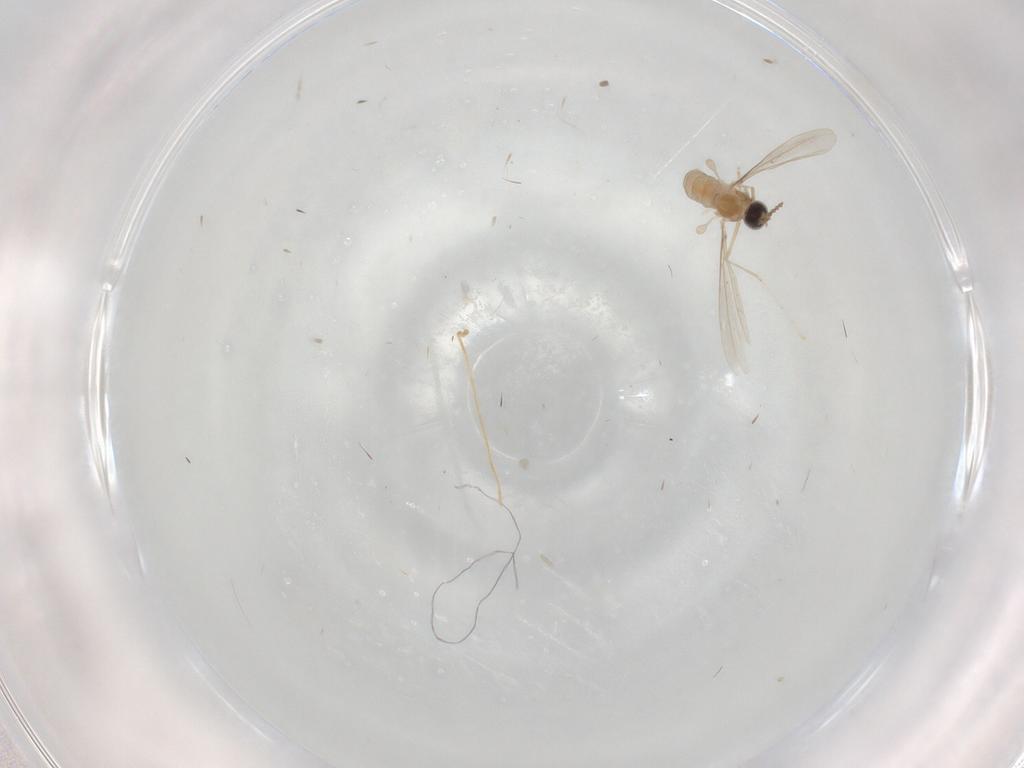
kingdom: Animalia
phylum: Arthropoda
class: Insecta
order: Diptera
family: Cecidomyiidae
